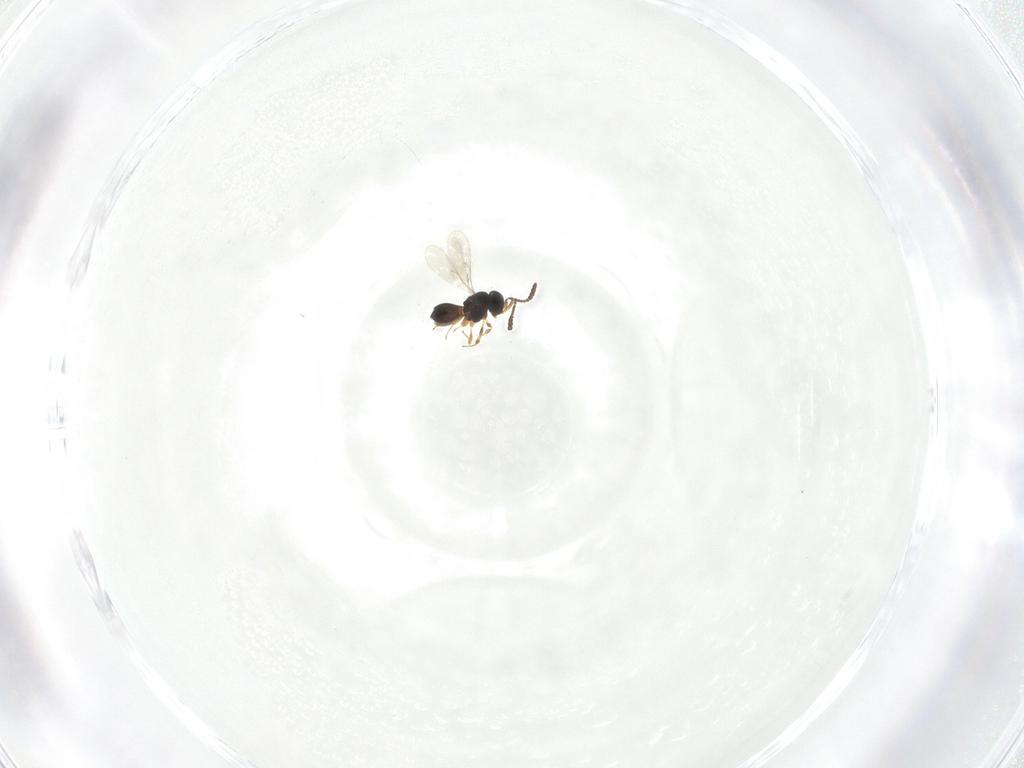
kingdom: Animalia
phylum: Arthropoda
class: Insecta
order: Hymenoptera
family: Scelionidae
